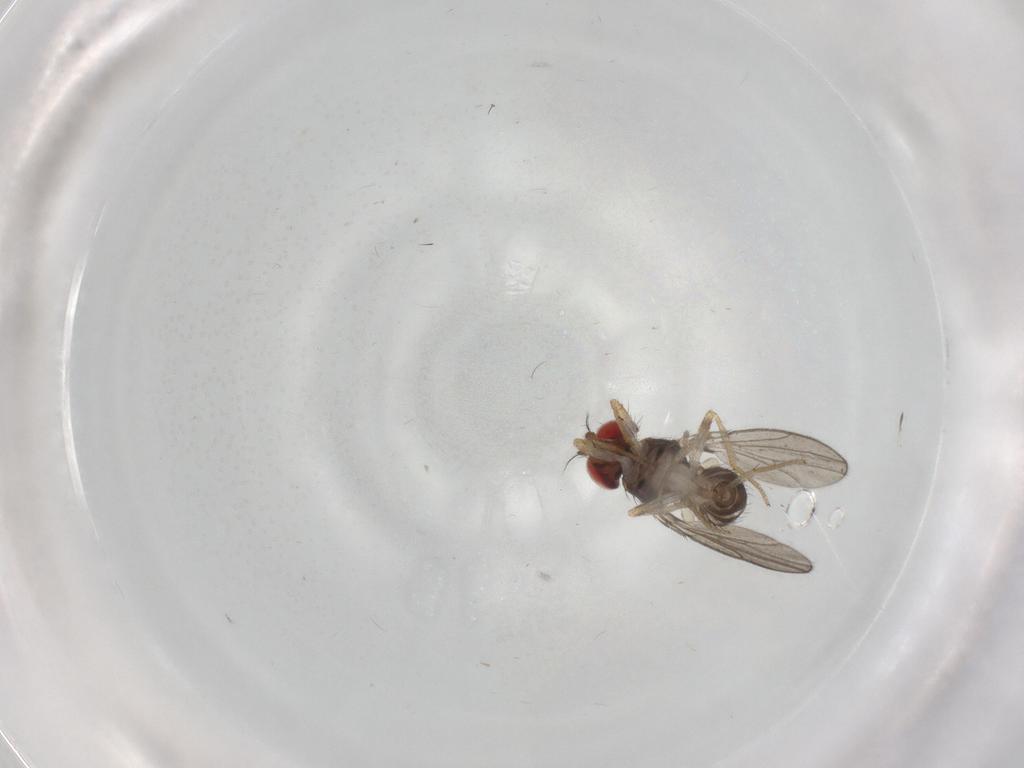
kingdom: Animalia
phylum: Arthropoda
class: Insecta
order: Diptera
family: Drosophilidae
